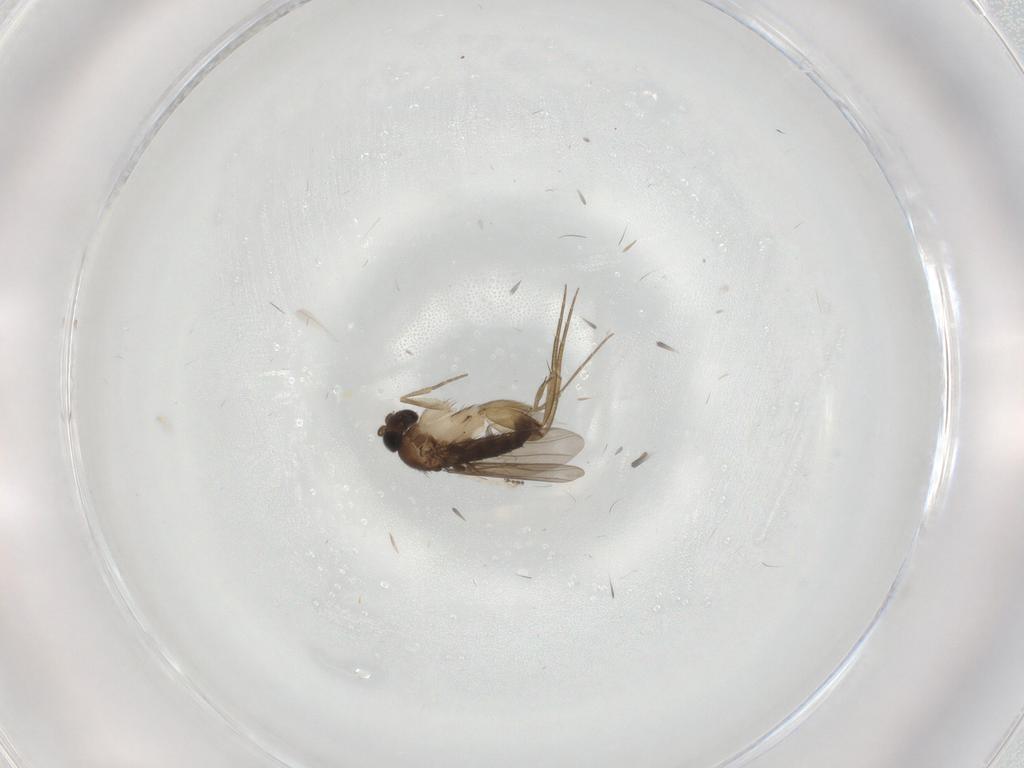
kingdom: Animalia
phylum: Arthropoda
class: Insecta
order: Diptera
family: Phoridae
